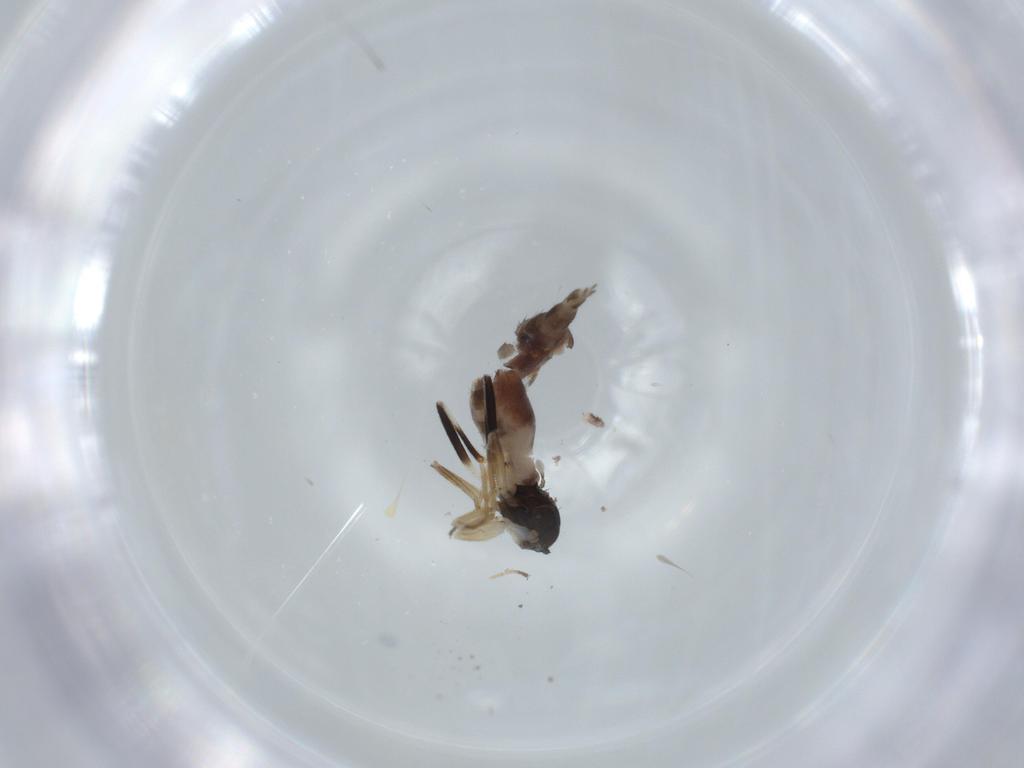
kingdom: Animalia
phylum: Arthropoda
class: Insecta
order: Diptera
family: Hybotidae
